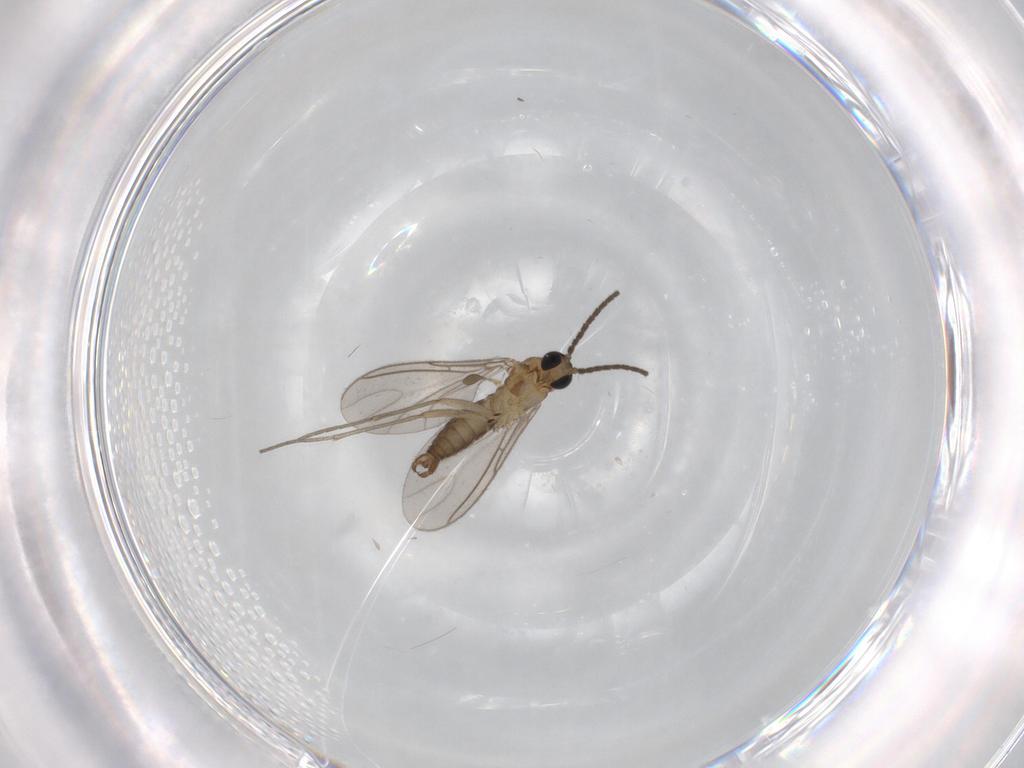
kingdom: Animalia
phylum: Arthropoda
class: Insecta
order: Diptera
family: Sciaridae
